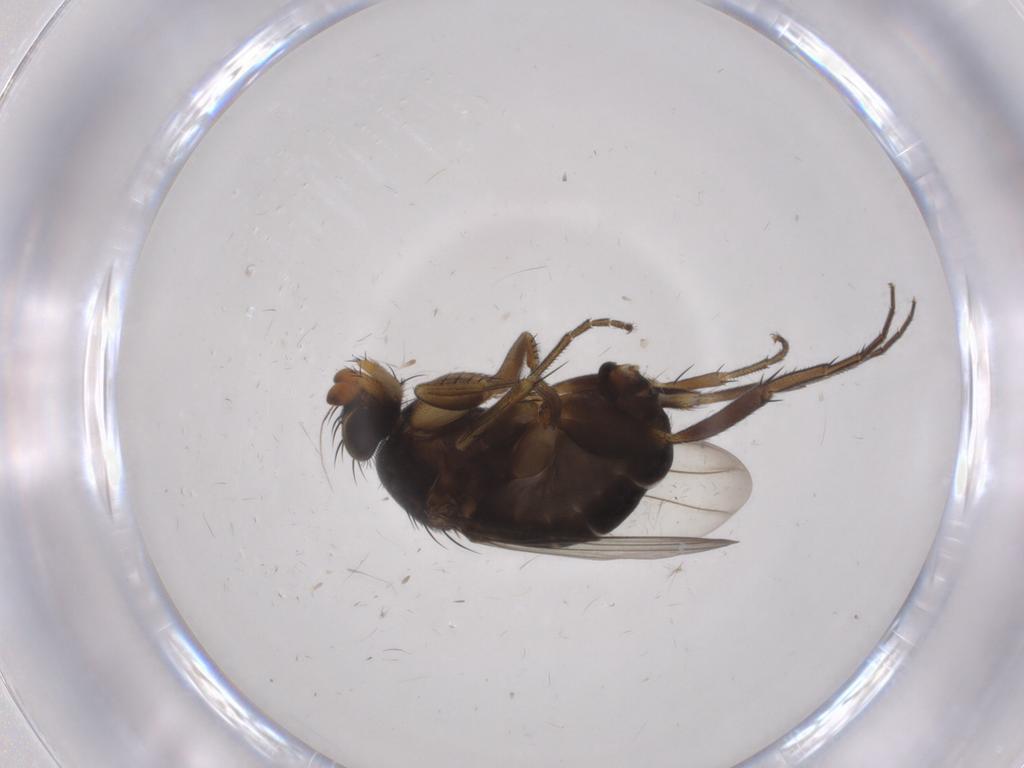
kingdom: Animalia
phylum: Arthropoda
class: Insecta
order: Diptera
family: Phoridae
